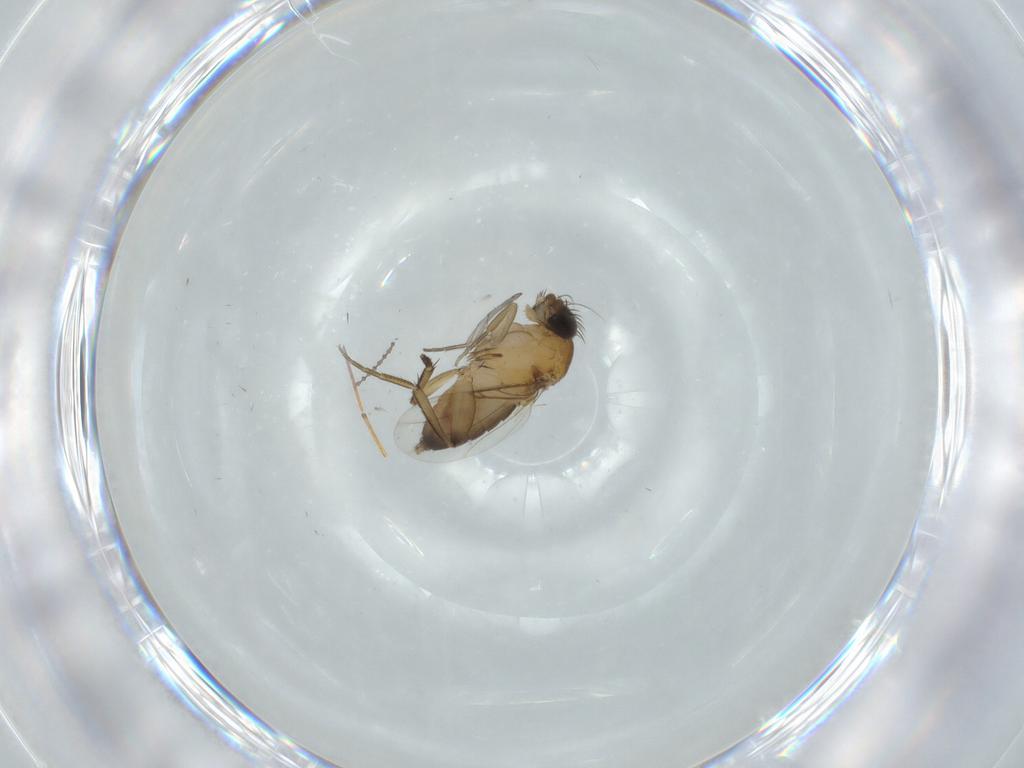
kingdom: Animalia
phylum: Arthropoda
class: Insecta
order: Diptera
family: Phoridae
